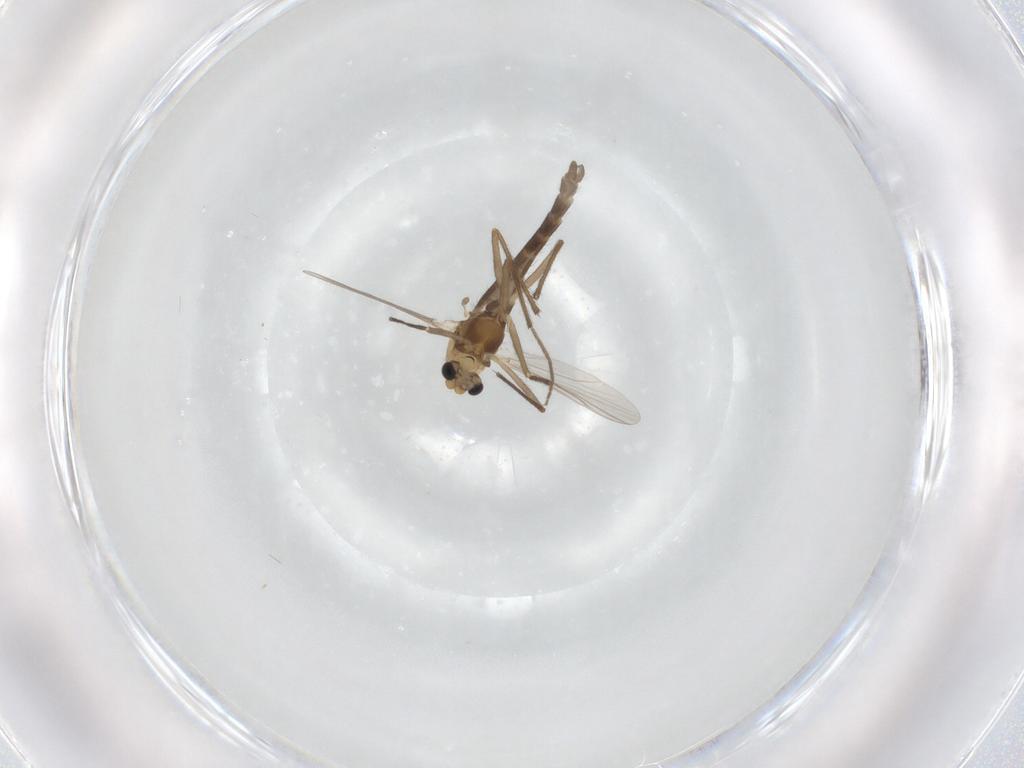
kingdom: Animalia
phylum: Arthropoda
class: Insecta
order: Diptera
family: Chironomidae
